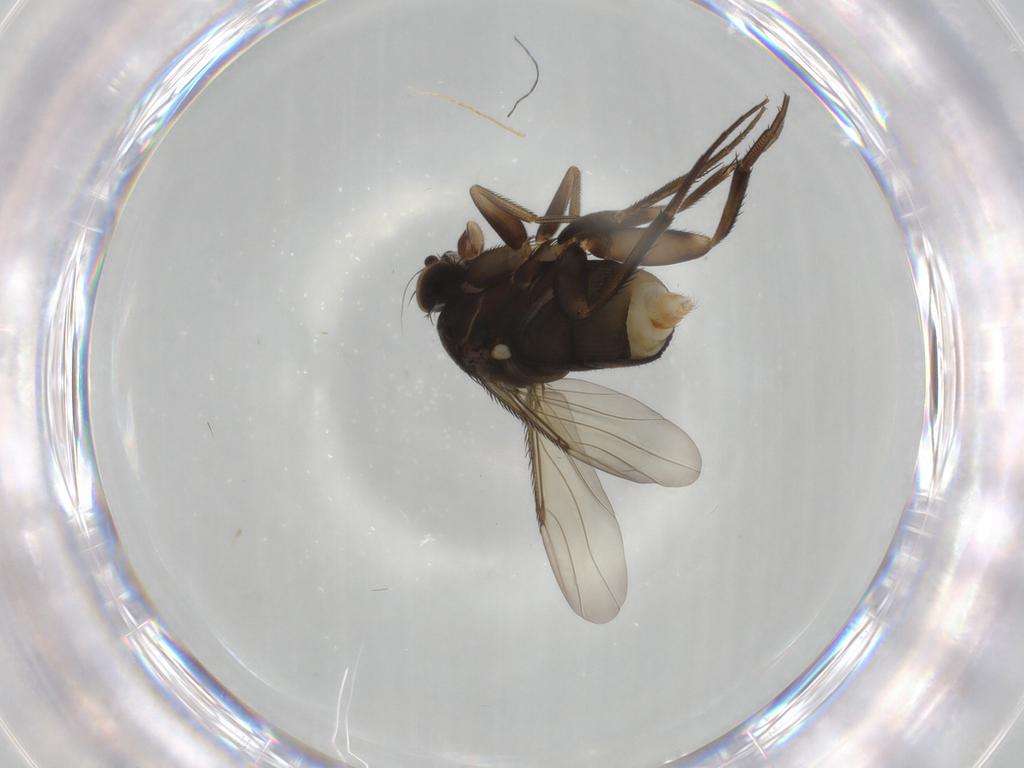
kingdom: Animalia
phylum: Arthropoda
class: Insecta
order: Diptera
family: Phoridae
